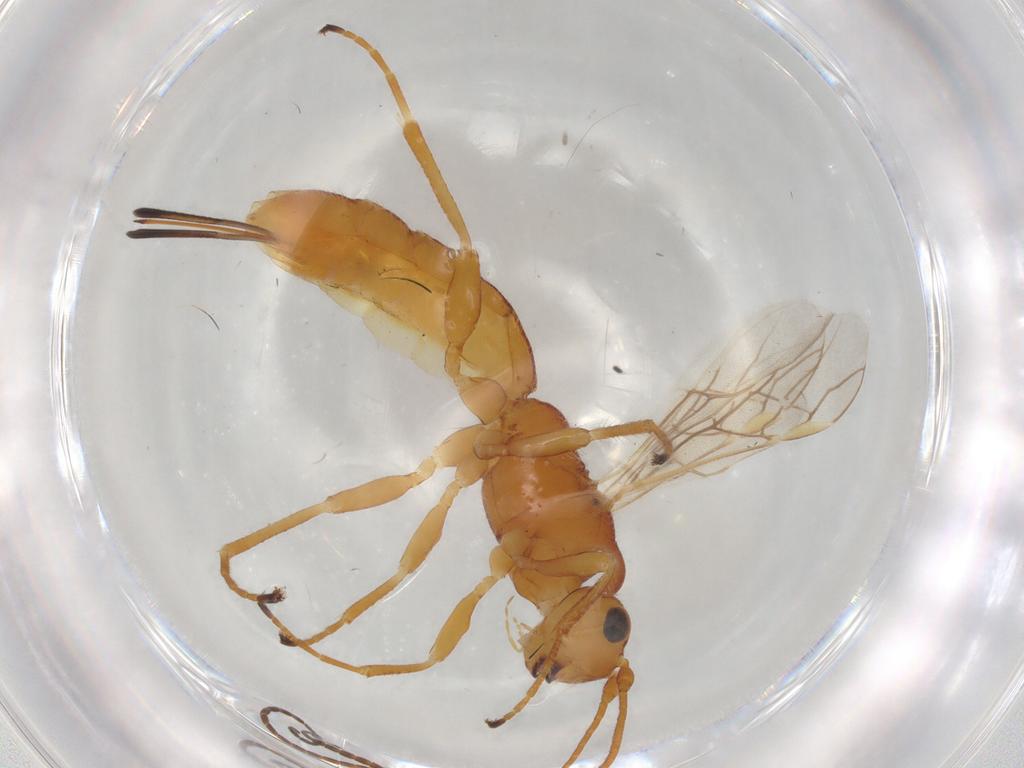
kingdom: Animalia
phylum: Arthropoda
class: Insecta
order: Hymenoptera
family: Braconidae
